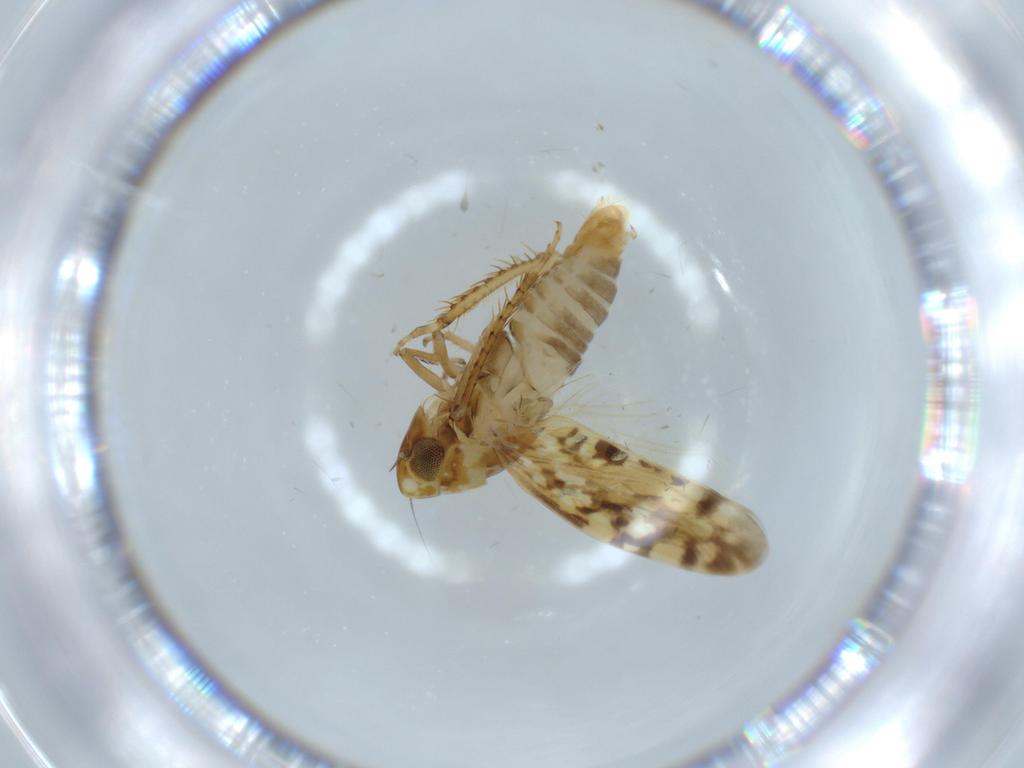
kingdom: Animalia
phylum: Arthropoda
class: Insecta
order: Hemiptera
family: Cicadellidae
